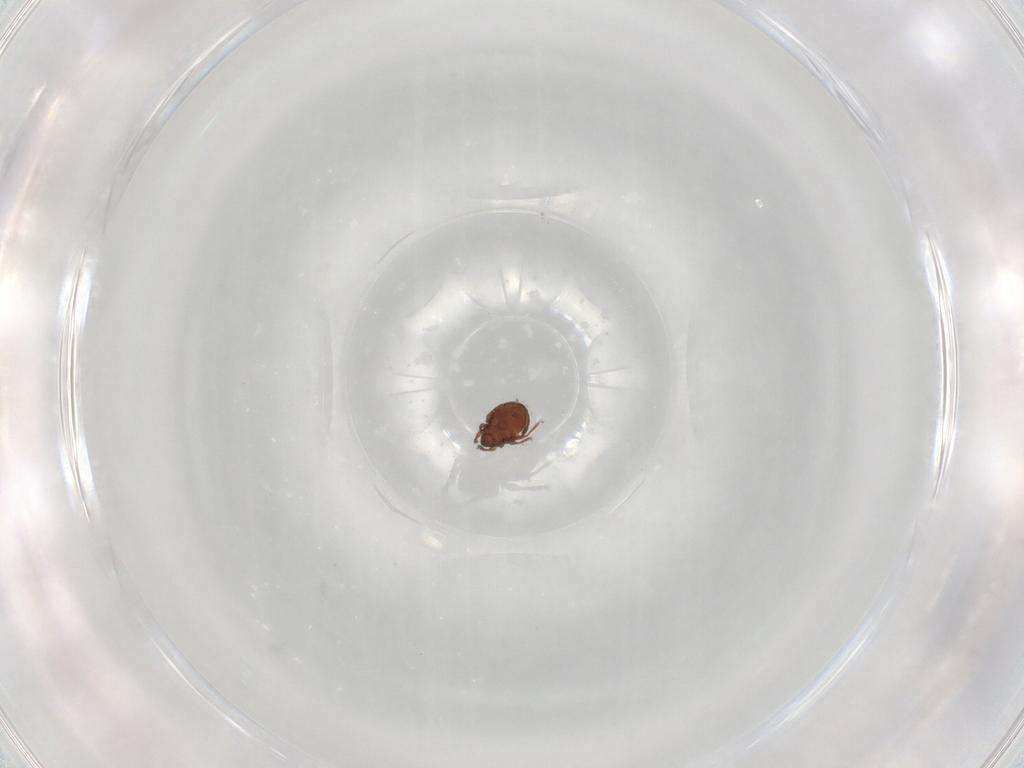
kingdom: Animalia
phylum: Arthropoda
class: Arachnida
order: Sarcoptiformes
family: Scheloribatidae
